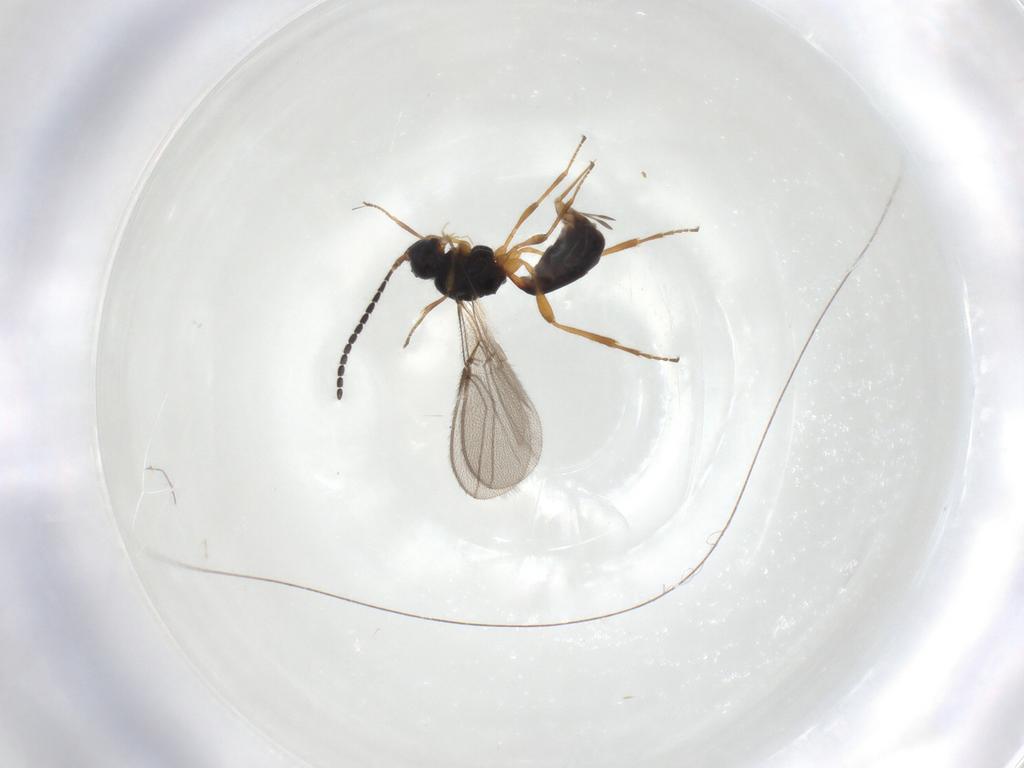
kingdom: Animalia
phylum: Arthropoda
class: Insecta
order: Hymenoptera
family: Braconidae
